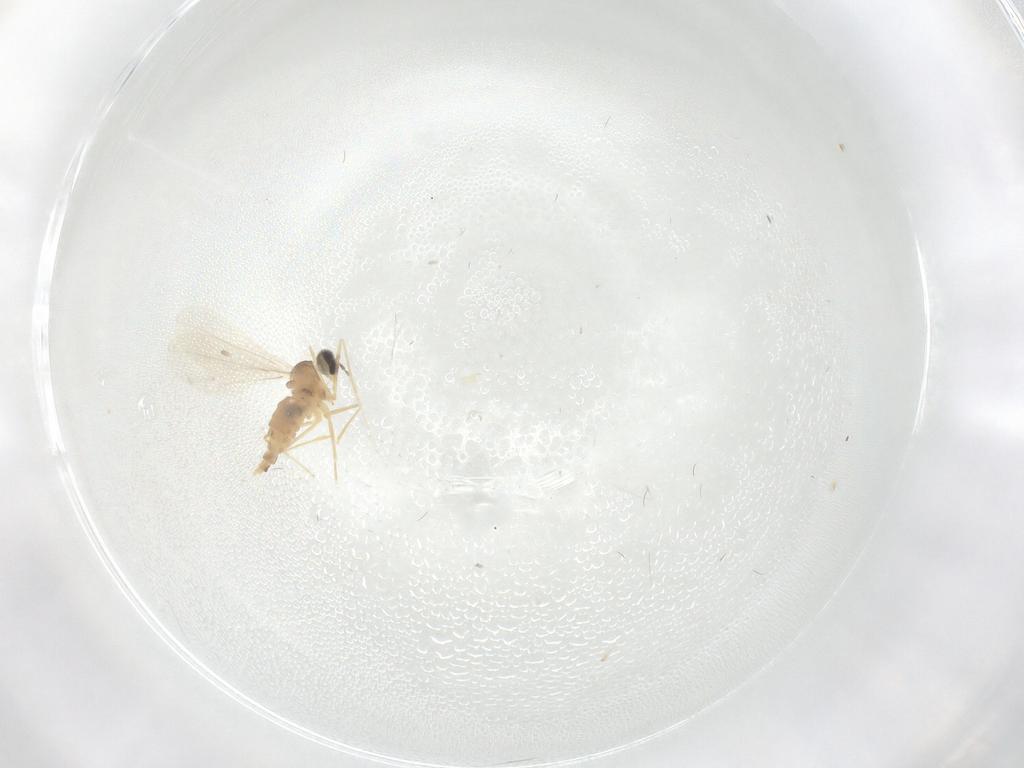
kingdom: Animalia
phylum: Arthropoda
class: Insecta
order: Diptera
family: Cecidomyiidae
